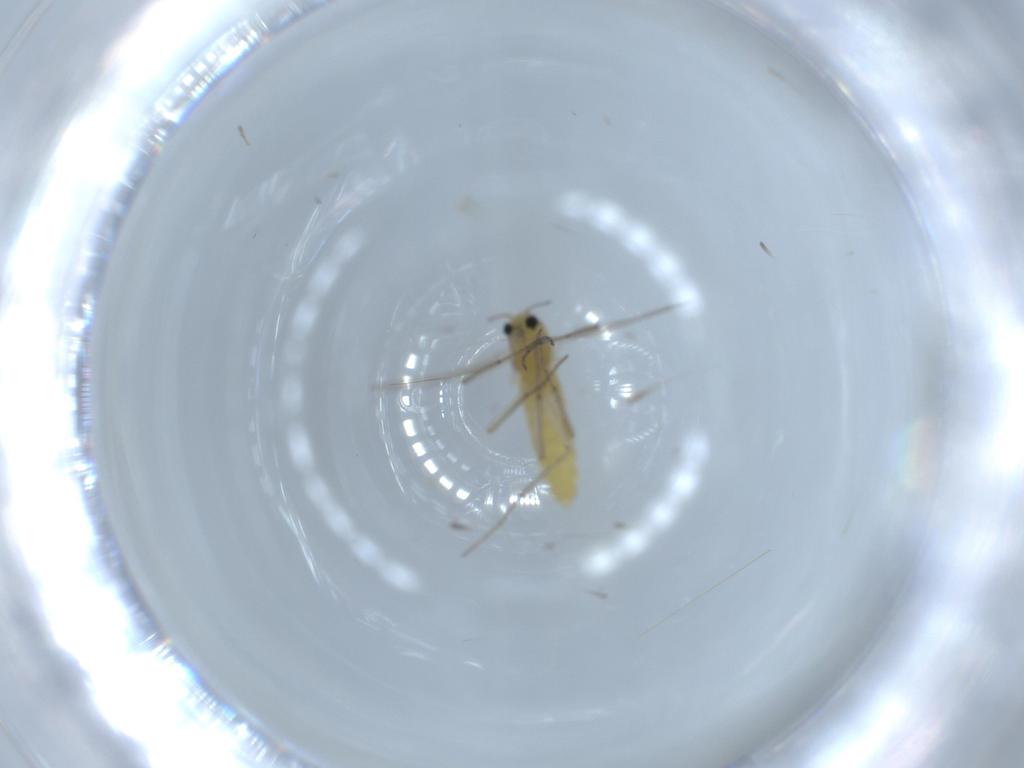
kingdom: Animalia
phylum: Arthropoda
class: Insecta
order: Diptera
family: Chironomidae
